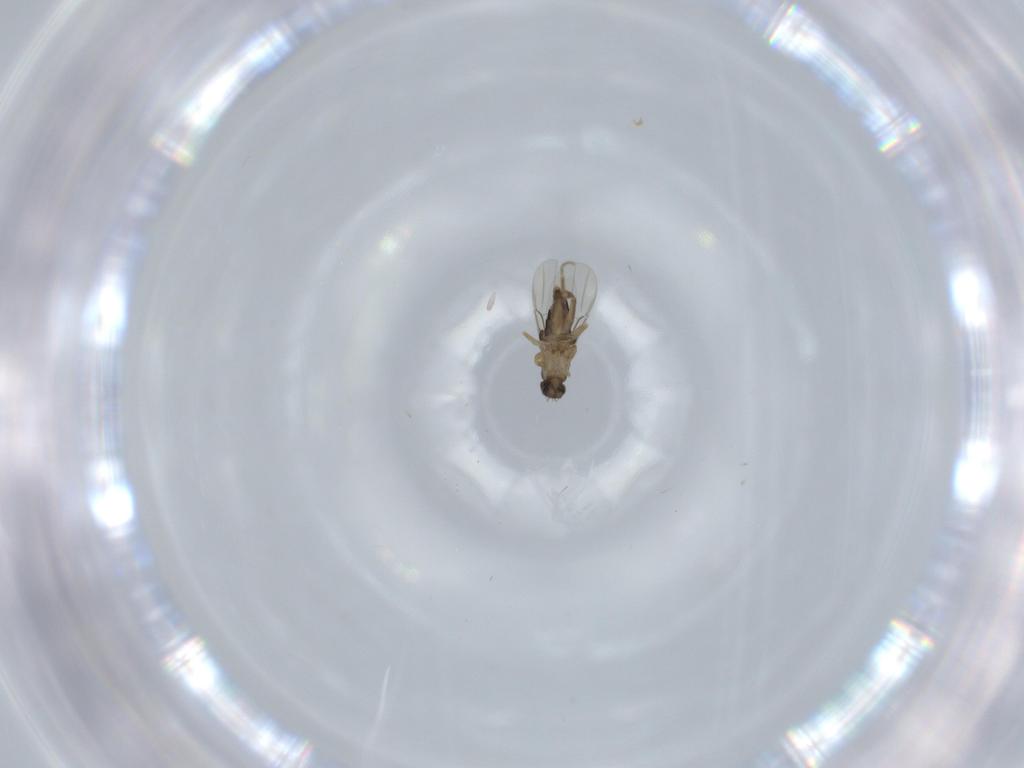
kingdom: Animalia
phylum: Arthropoda
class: Insecta
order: Diptera
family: Phoridae
